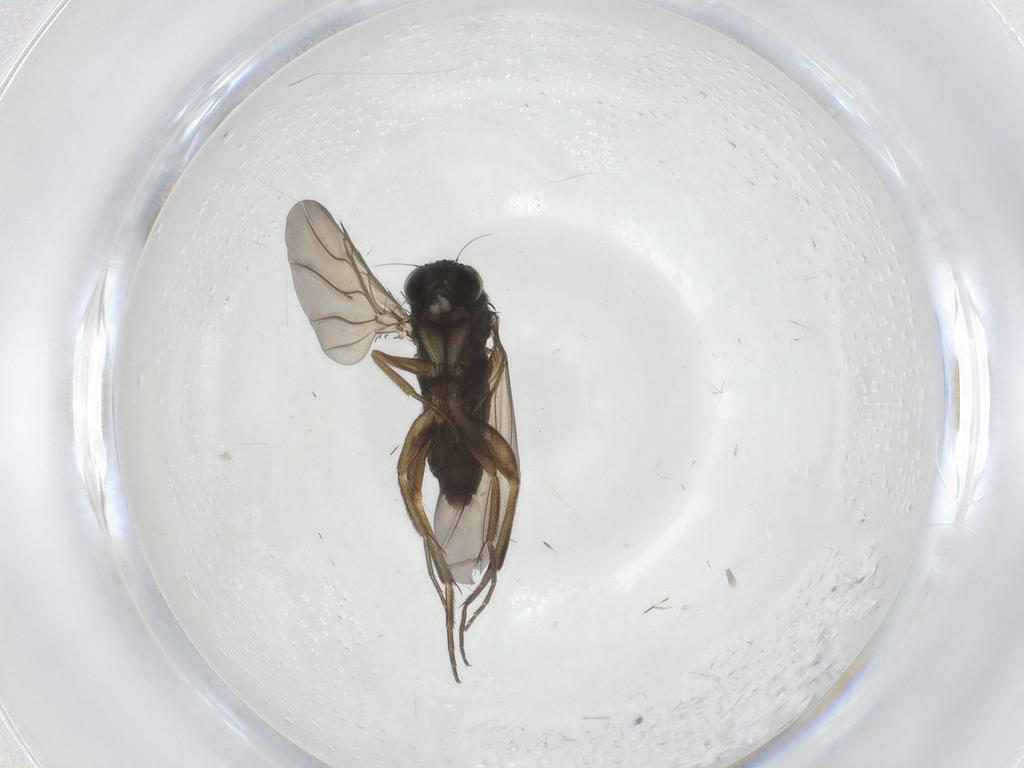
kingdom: Animalia
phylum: Arthropoda
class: Insecta
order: Diptera
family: Phoridae
